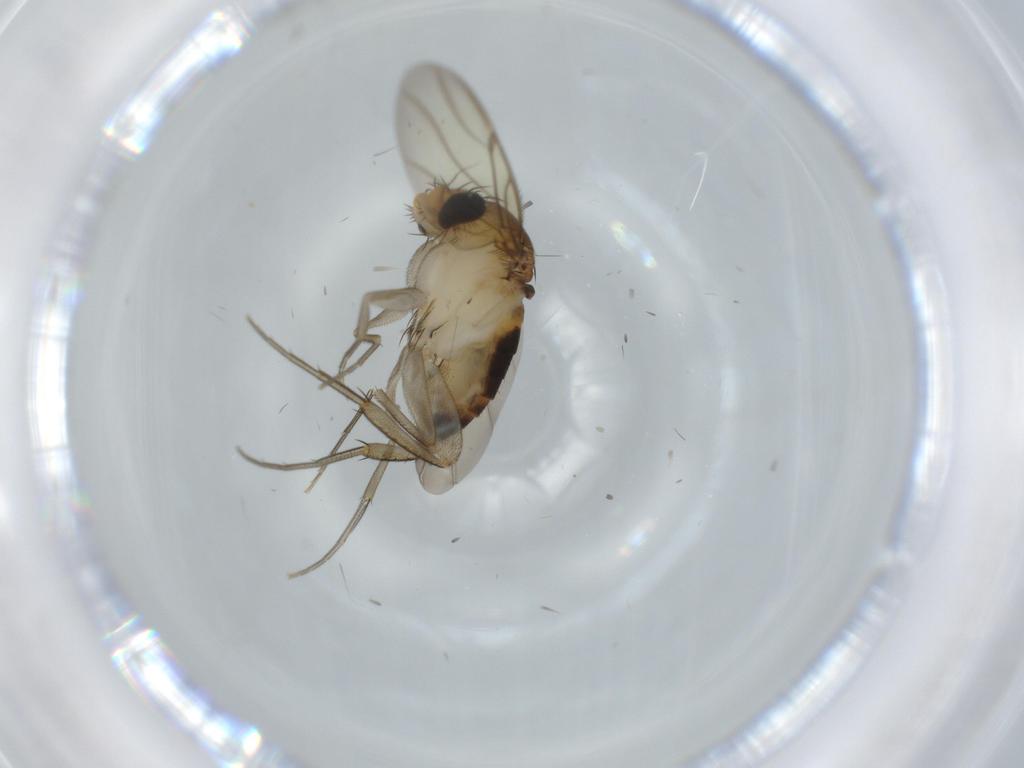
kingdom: Animalia
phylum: Arthropoda
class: Insecta
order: Diptera
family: Phoridae
